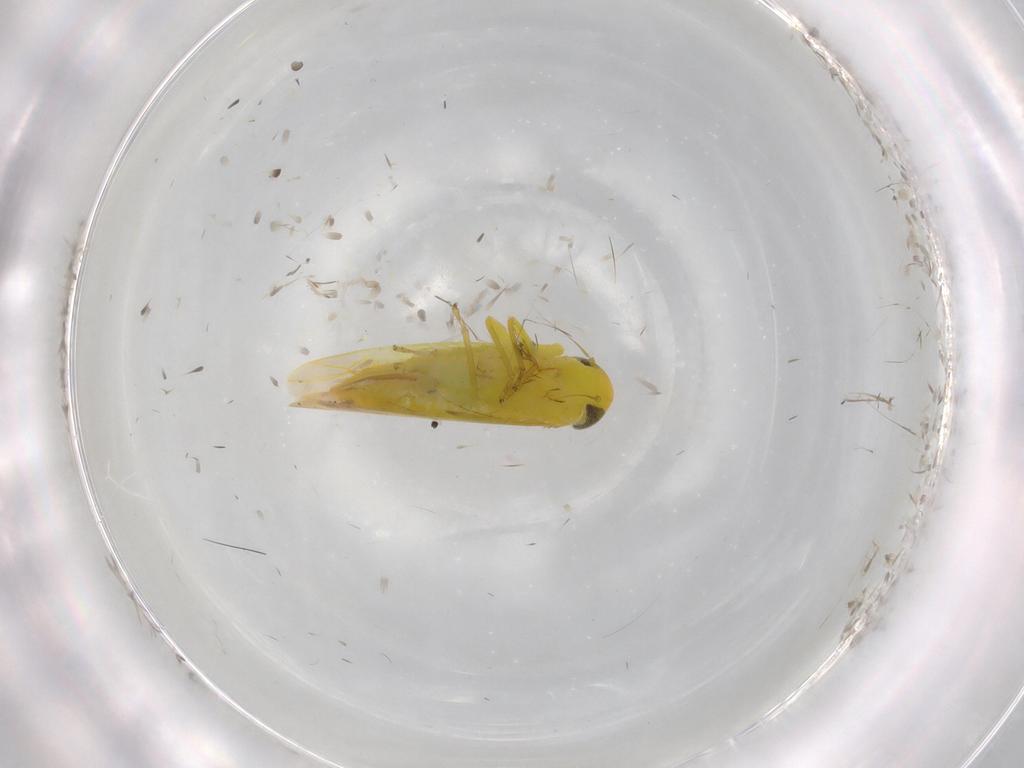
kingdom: Animalia
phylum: Arthropoda
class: Insecta
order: Hemiptera
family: Cicadellidae
